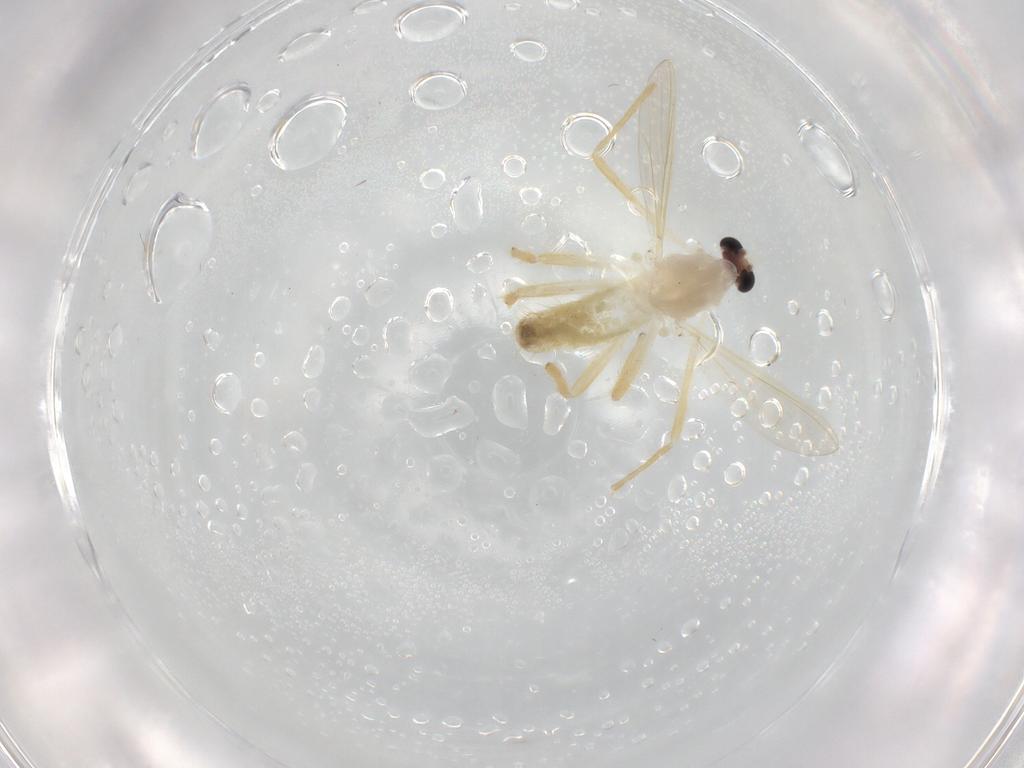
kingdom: Animalia
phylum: Arthropoda
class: Insecta
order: Diptera
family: Chironomidae
